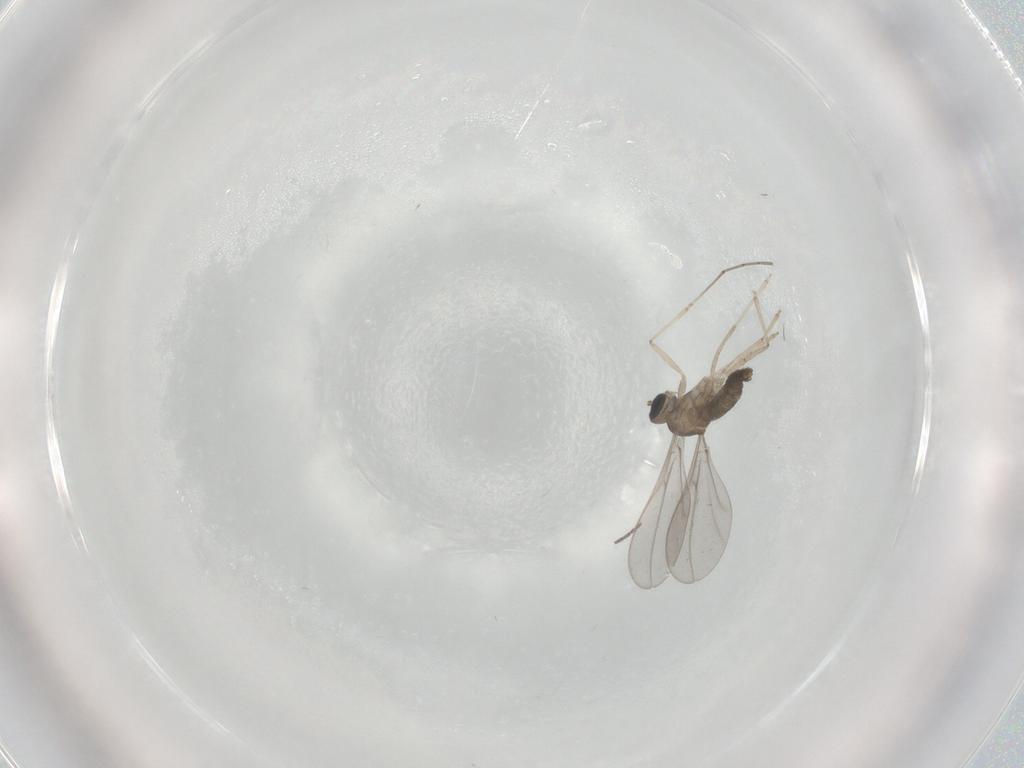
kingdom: Animalia
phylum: Arthropoda
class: Insecta
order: Diptera
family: Cecidomyiidae
